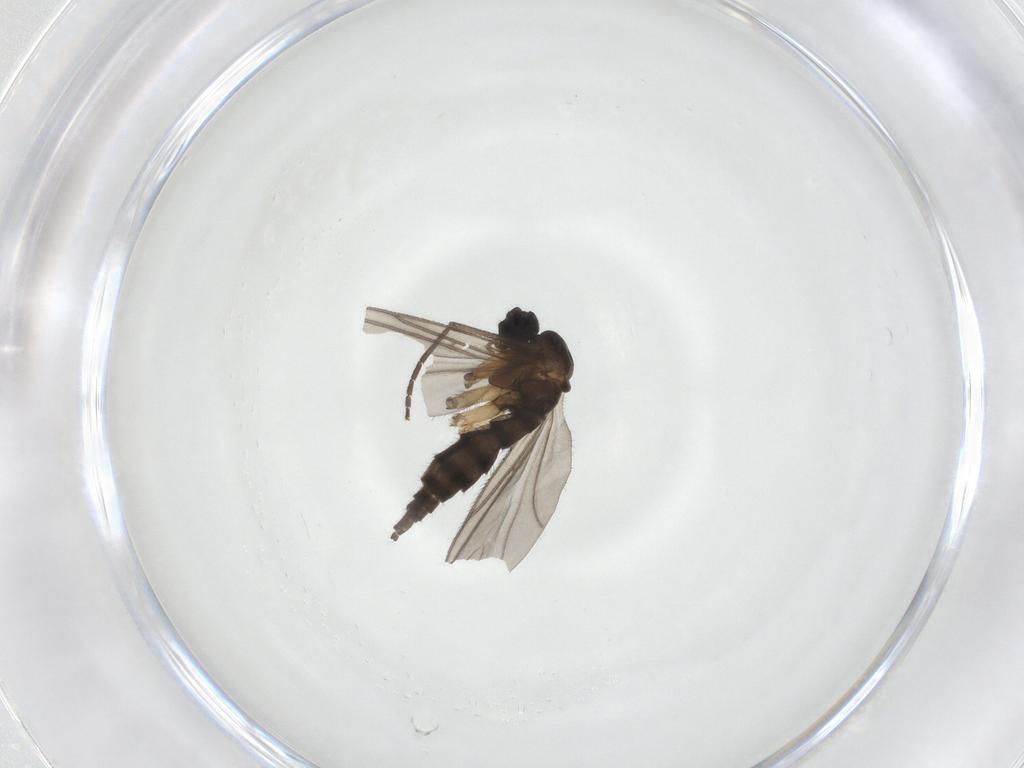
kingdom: Animalia
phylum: Arthropoda
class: Insecta
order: Diptera
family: Sciaridae
